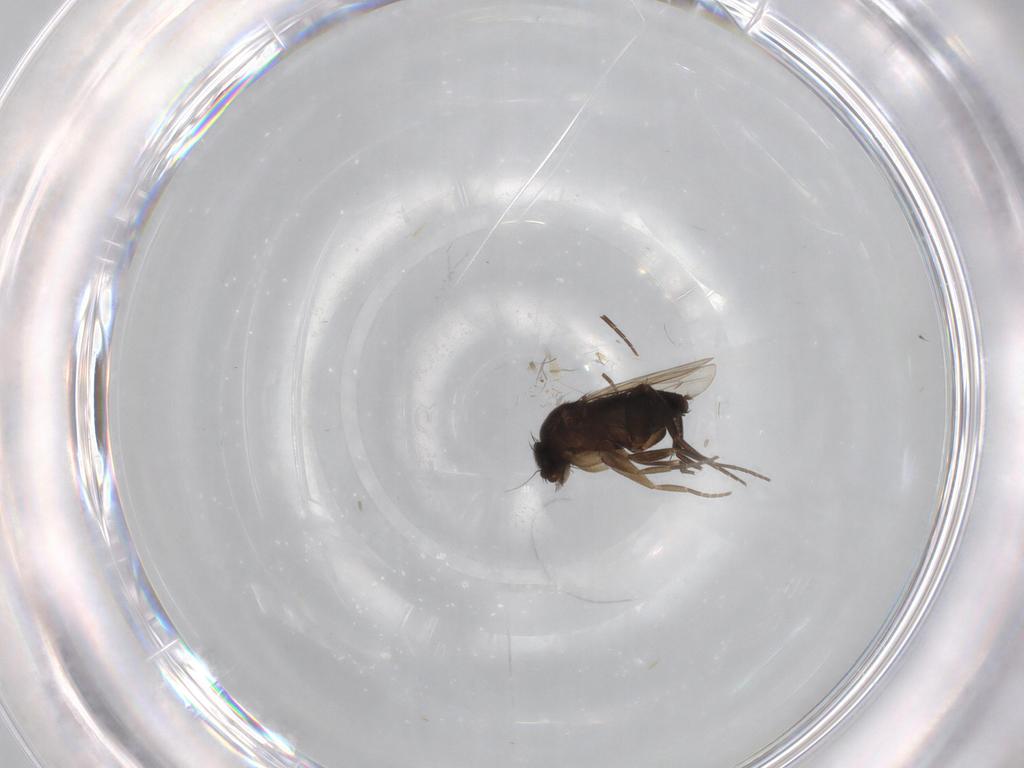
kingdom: Animalia
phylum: Arthropoda
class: Insecta
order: Diptera
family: Phoridae
